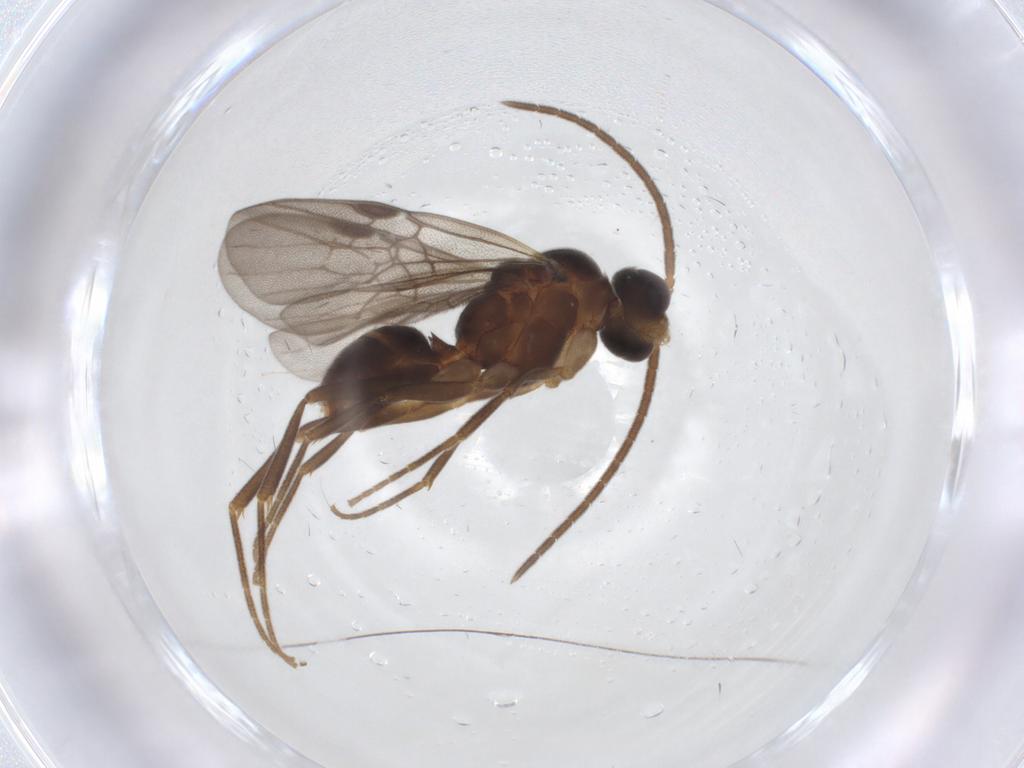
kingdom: Animalia
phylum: Arthropoda
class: Insecta
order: Hymenoptera
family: Formicidae
